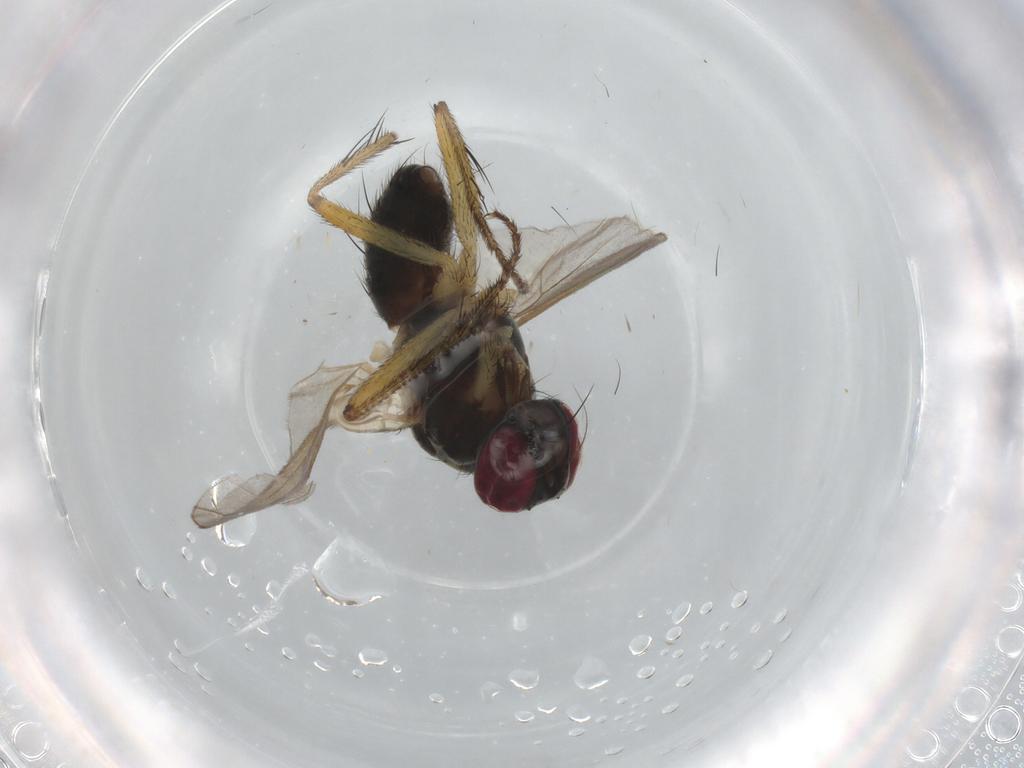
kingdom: Animalia
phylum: Arthropoda
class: Insecta
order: Diptera
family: Muscidae
